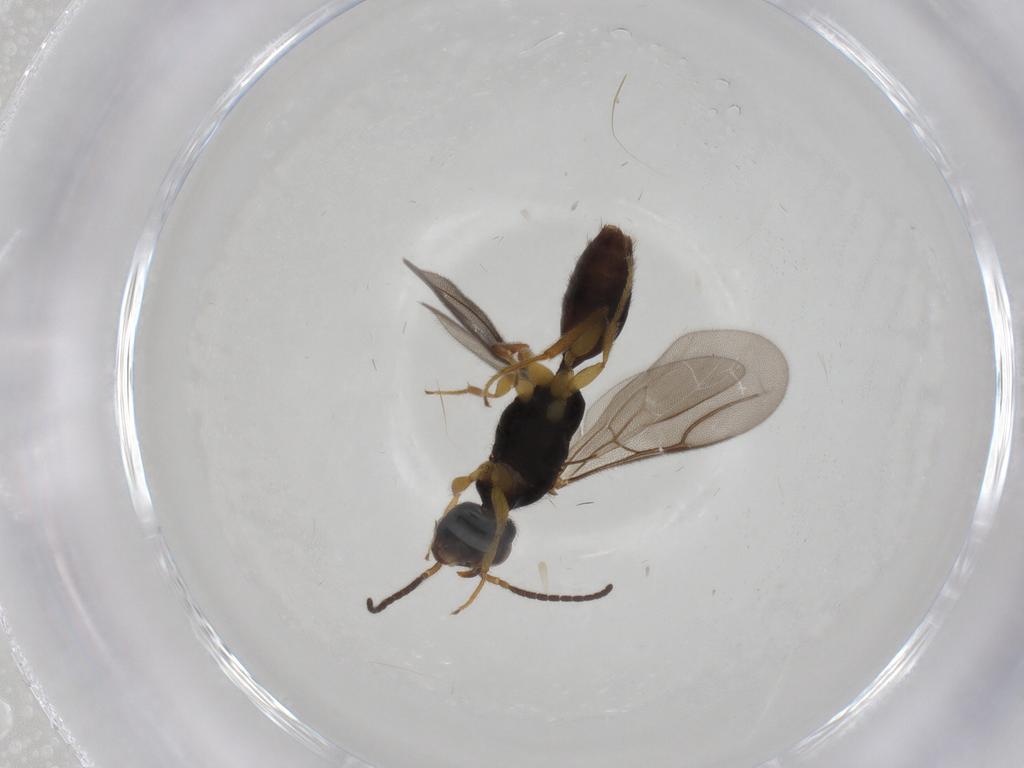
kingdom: Animalia
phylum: Arthropoda
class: Insecta
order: Hymenoptera
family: Bethylidae
